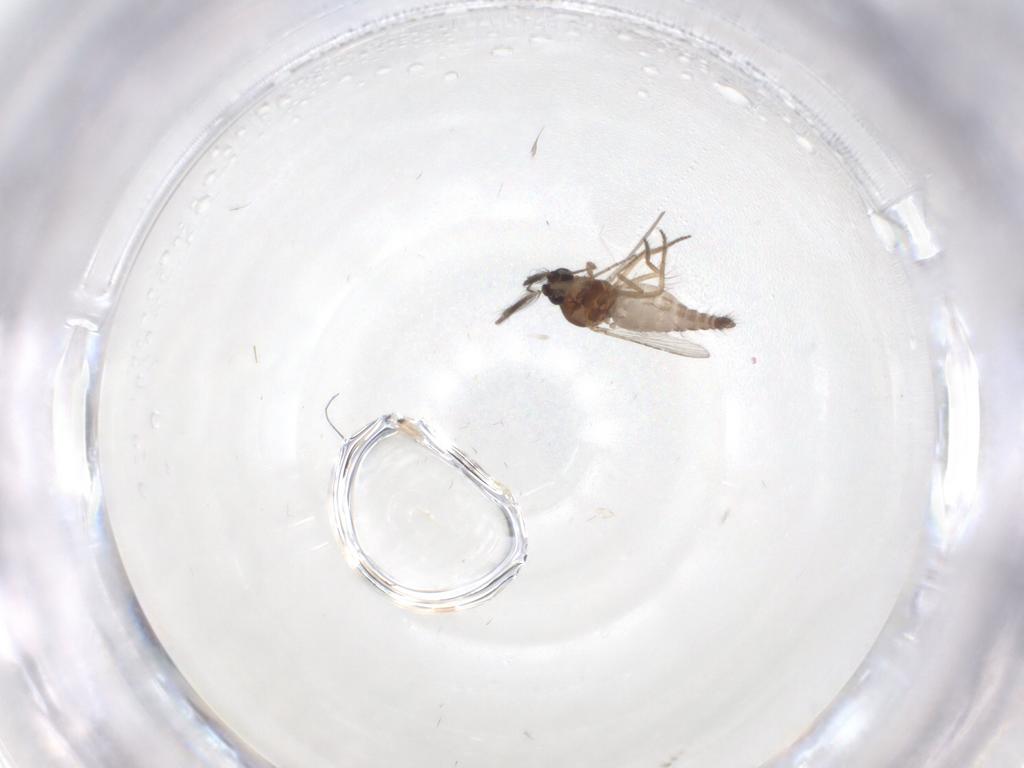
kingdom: Animalia
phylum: Arthropoda
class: Insecta
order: Diptera
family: Ceratopogonidae
